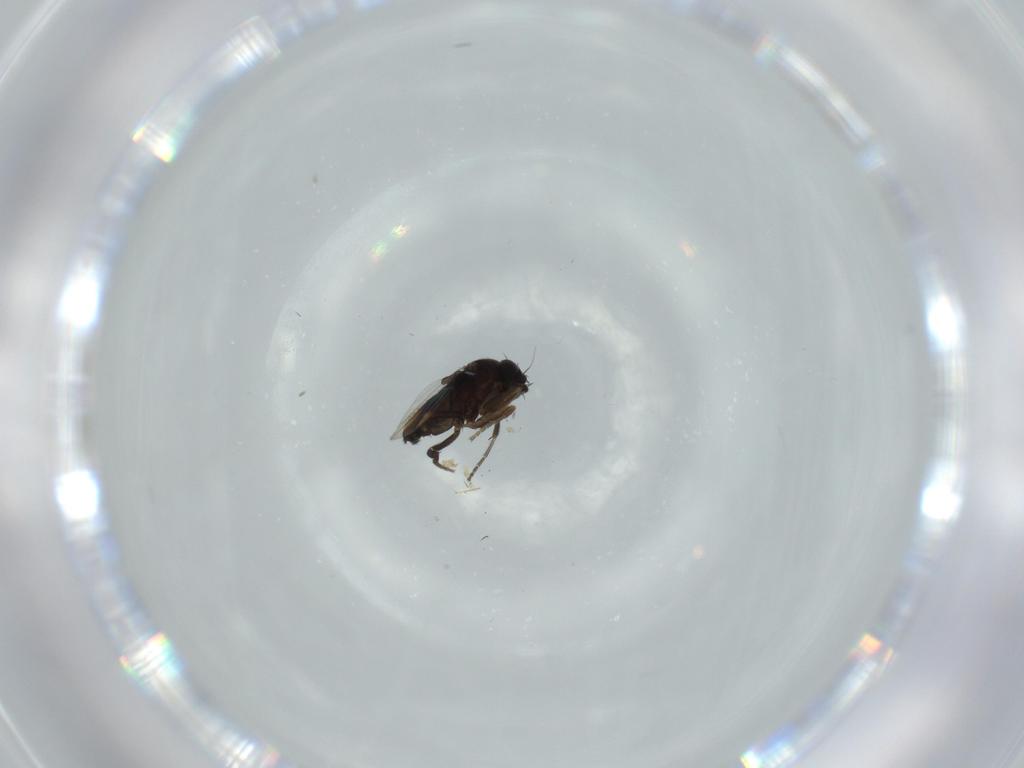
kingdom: Animalia
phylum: Arthropoda
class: Insecta
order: Diptera
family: Phoridae
